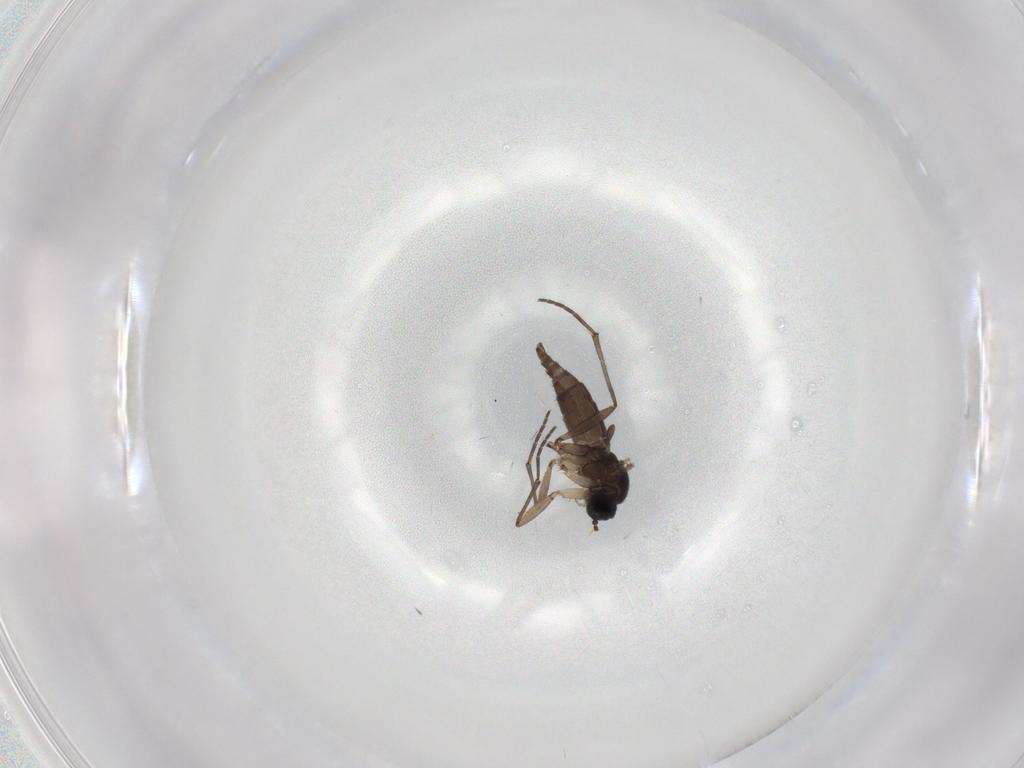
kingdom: Animalia
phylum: Arthropoda
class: Insecta
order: Diptera
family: Sciaridae
